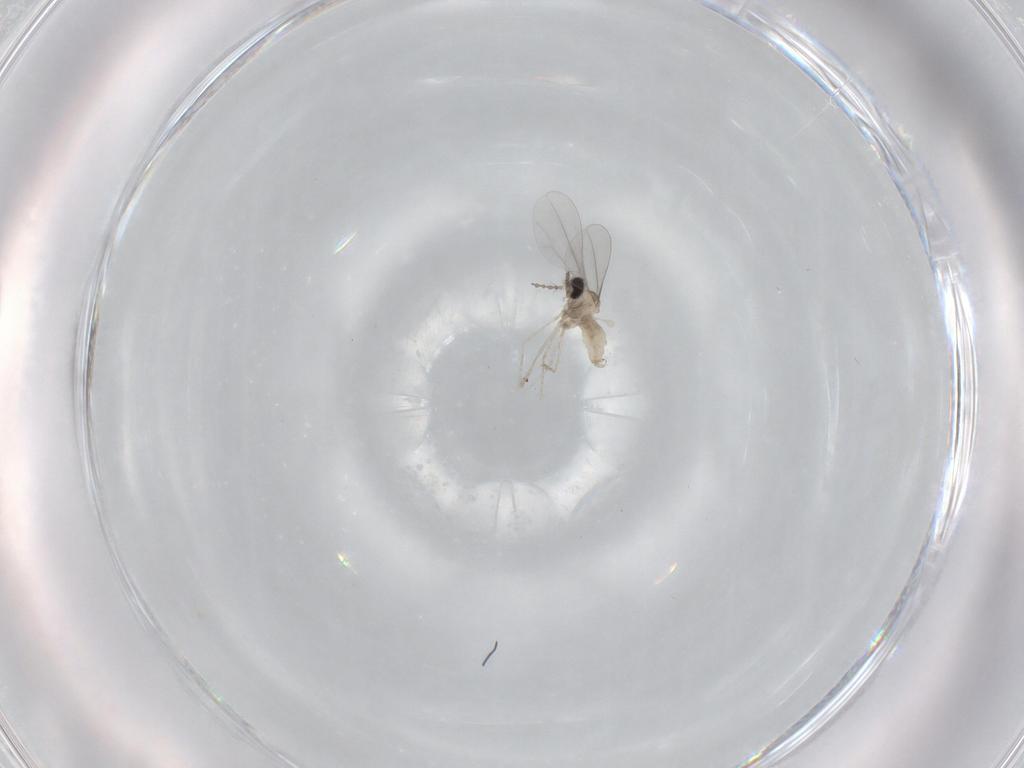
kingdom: Animalia
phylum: Arthropoda
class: Insecta
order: Diptera
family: Cecidomyiidae
